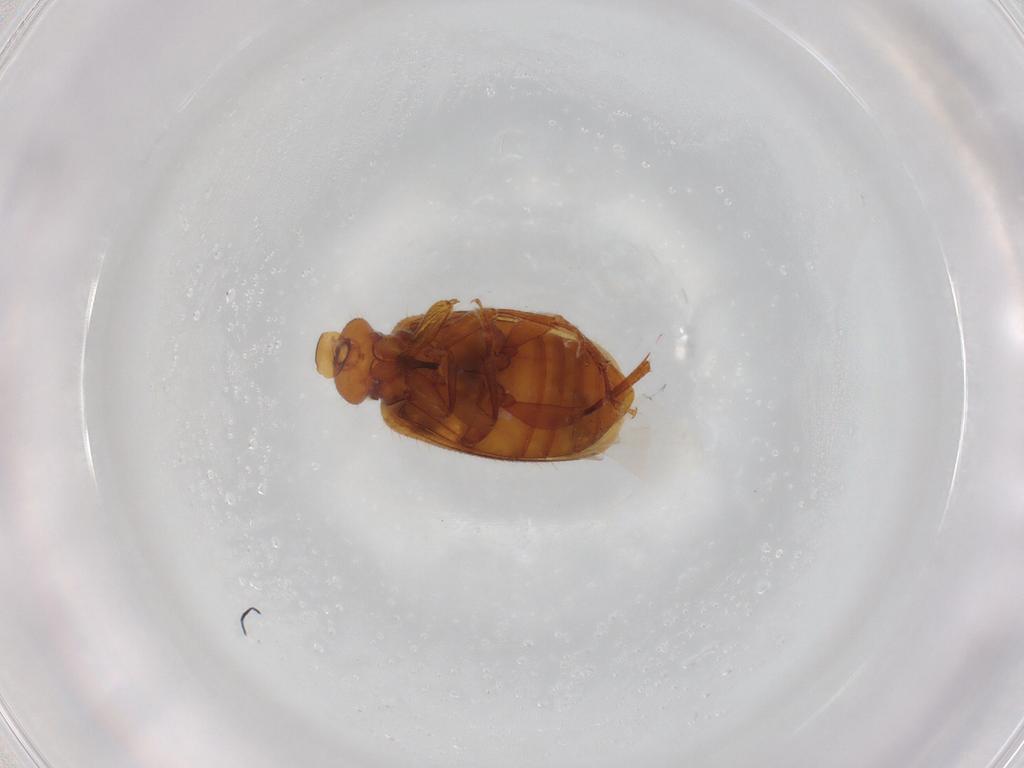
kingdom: Animalia
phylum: Arthropoda
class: Insecta
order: Coleoptera
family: Anthicidae
